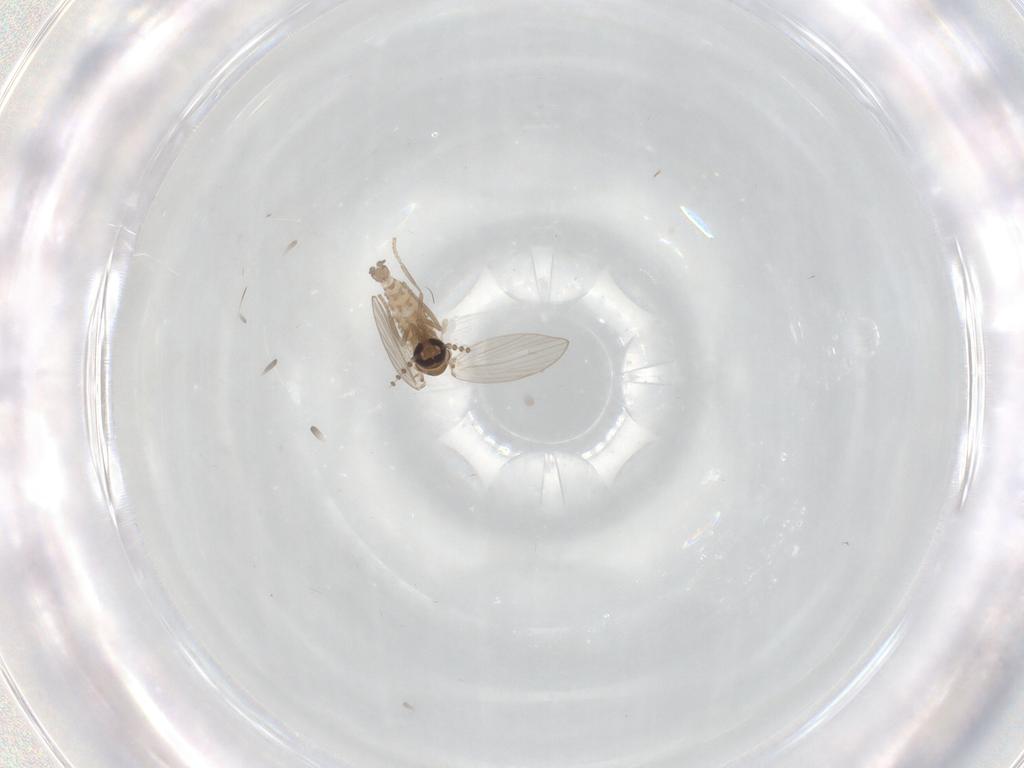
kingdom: Animalia
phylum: Arthropoda
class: Insecta
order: Diptera
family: Psychodidae
